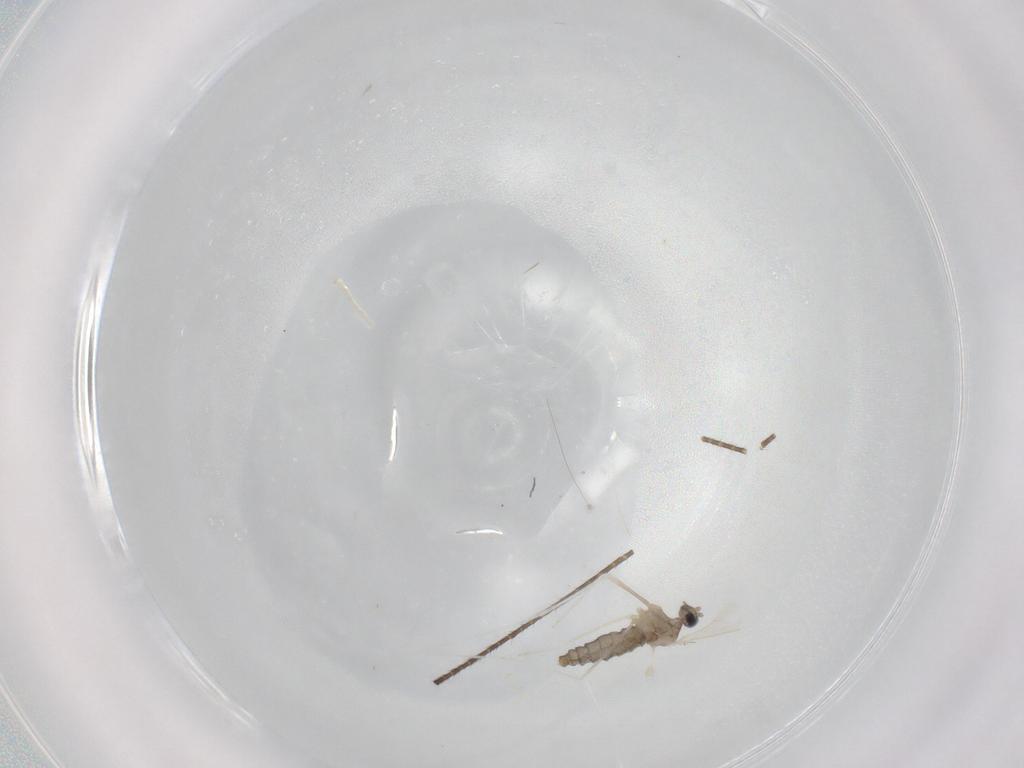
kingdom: Animalia
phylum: Arthropoda
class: Insecta
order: Diptera
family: Cecidomyiidae
